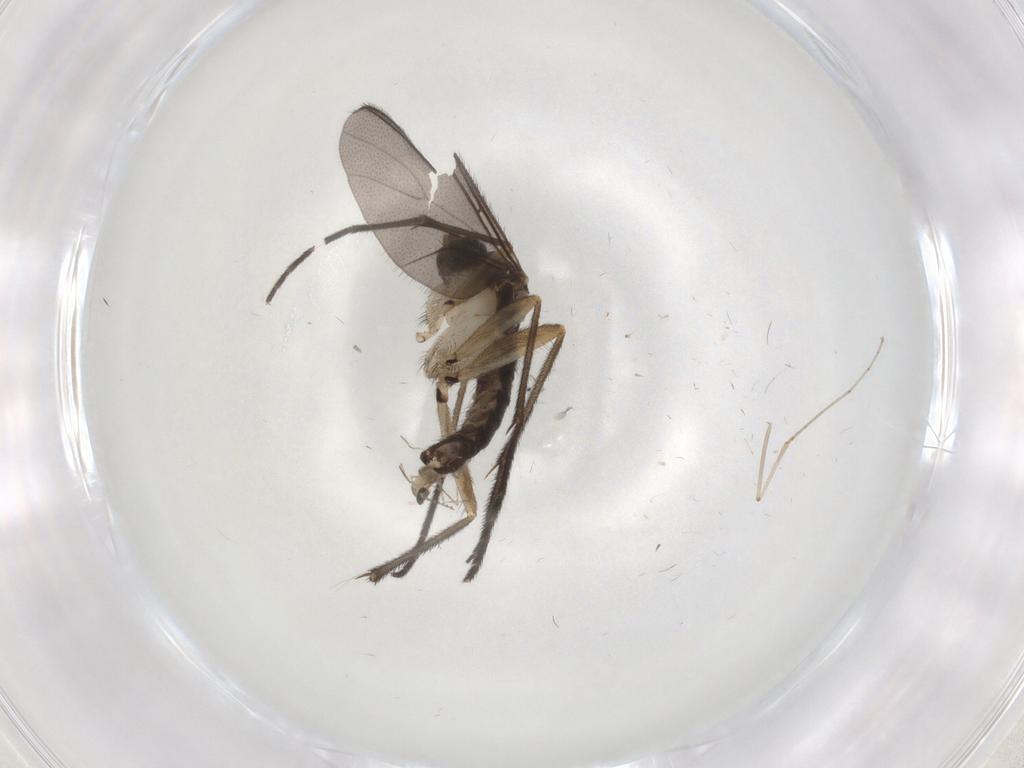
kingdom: Animalia
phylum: Arthropoda
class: Insecta
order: Diptera
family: Sciaridae
